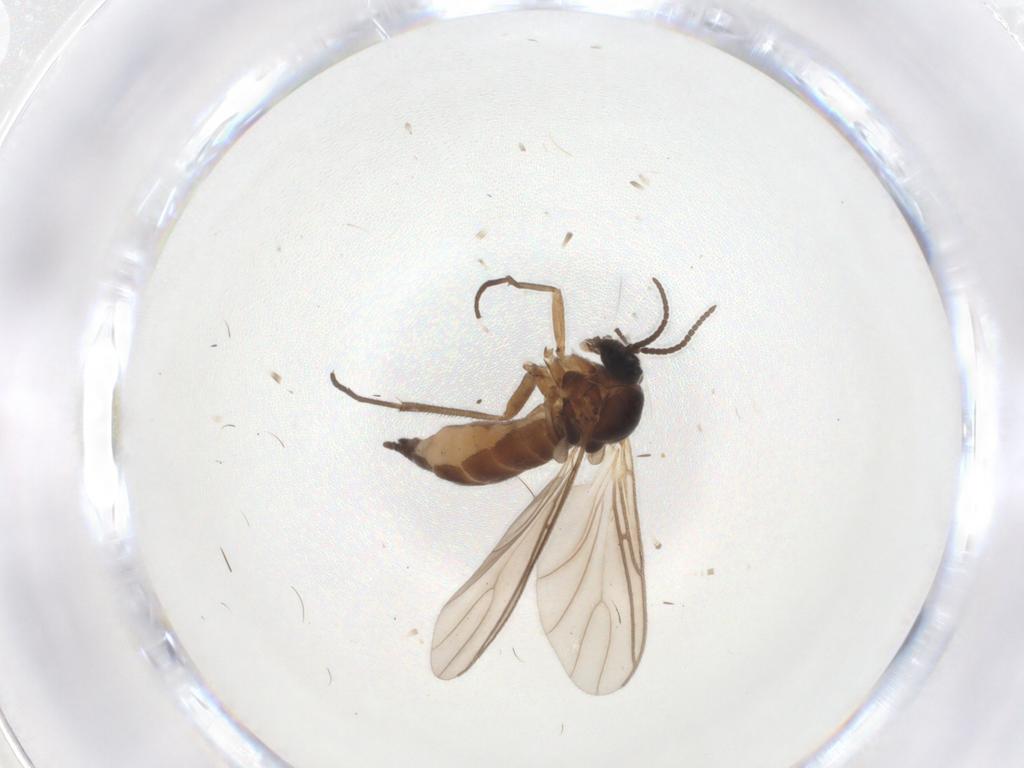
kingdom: Animalia
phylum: Arthropoda
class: Insecta
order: Diptera
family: Sciaridae
